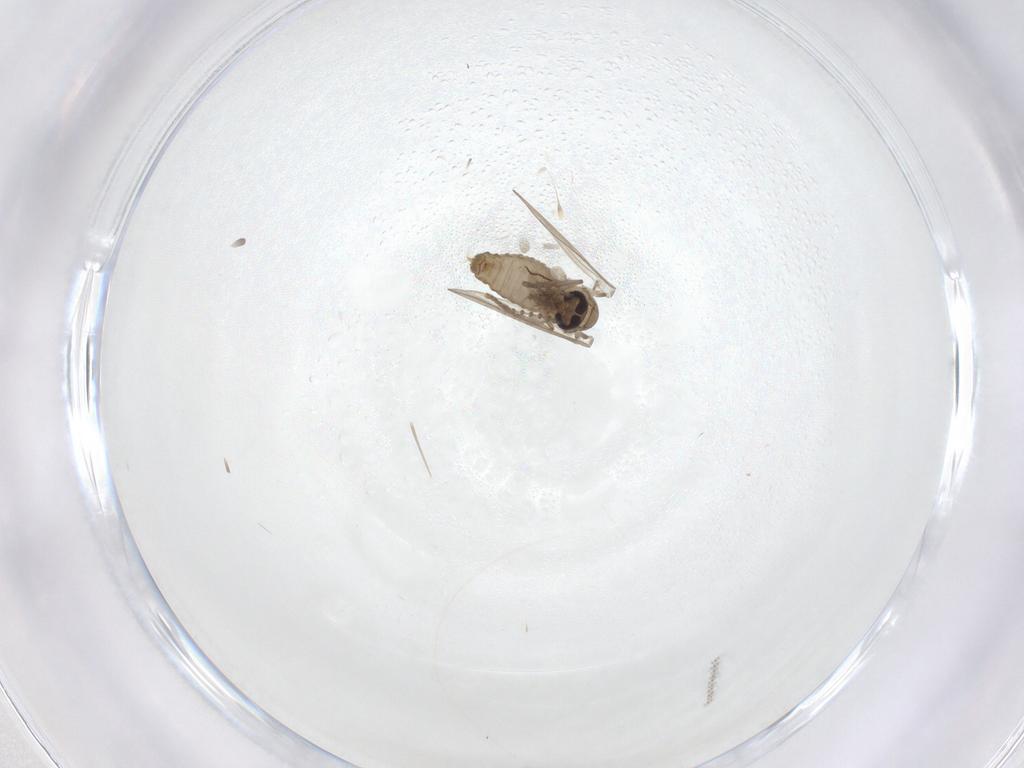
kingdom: Animalia
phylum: Arthropoda
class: Insecta
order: Diptera
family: Psychodidae
